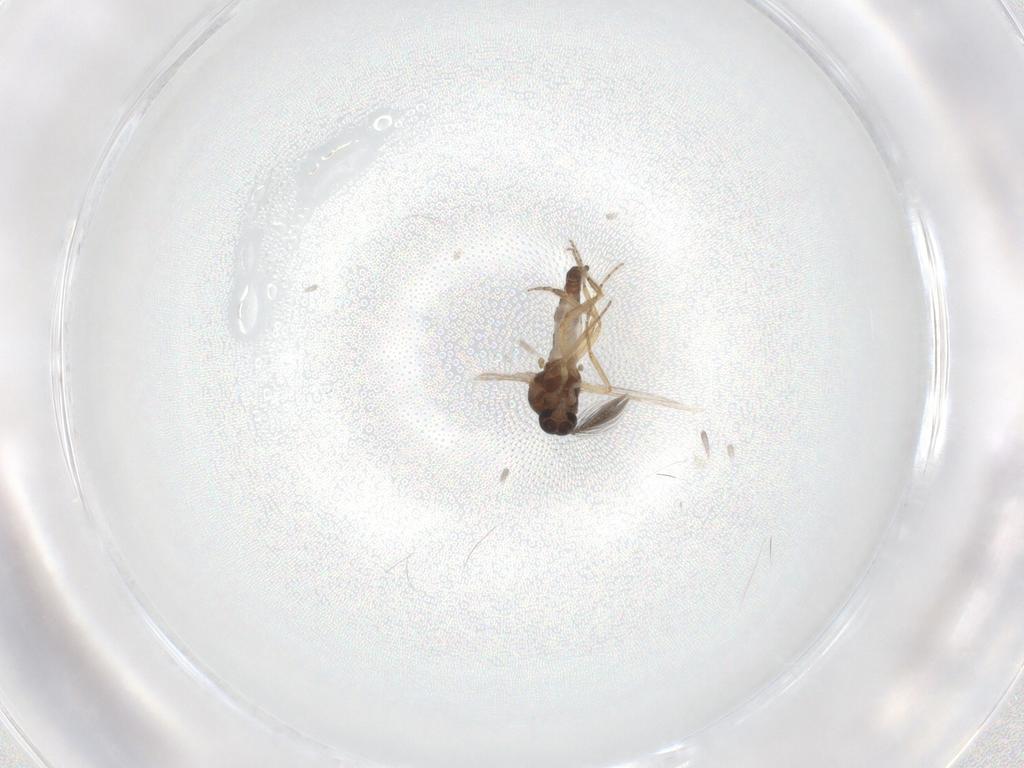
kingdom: Animalia
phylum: Arthropoda
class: Insecta
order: Diptera
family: Ceratopogonidae
